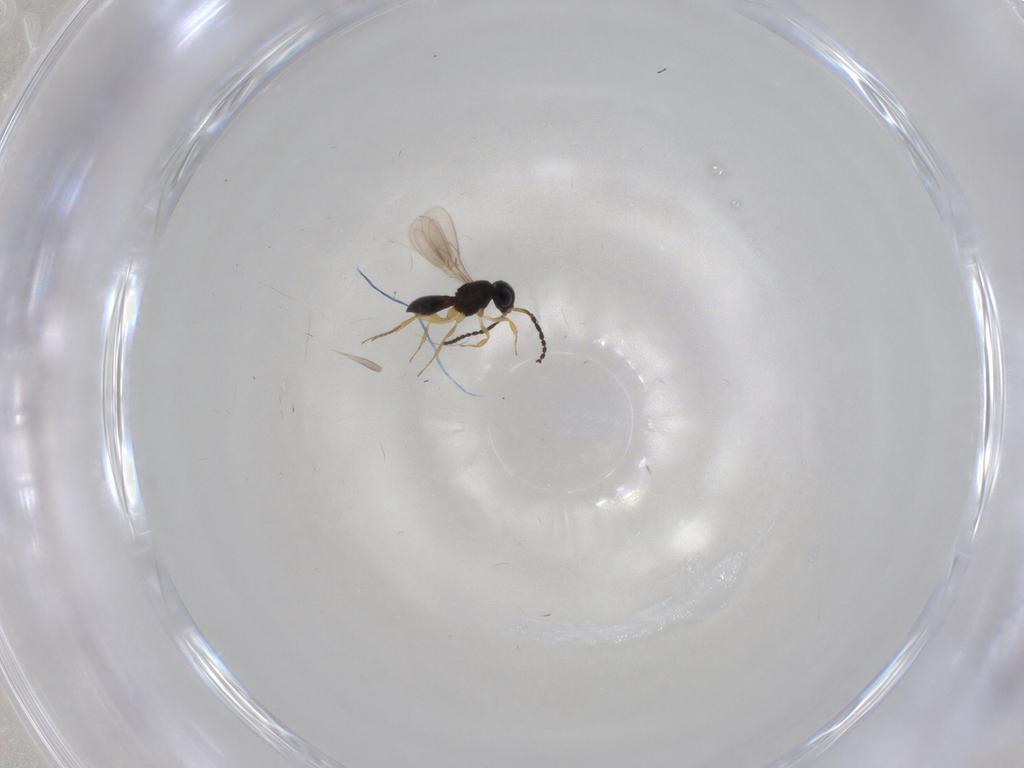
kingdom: Animalia
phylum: Arthropoda
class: Insecta
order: Hymenoptera
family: Scelionidae
